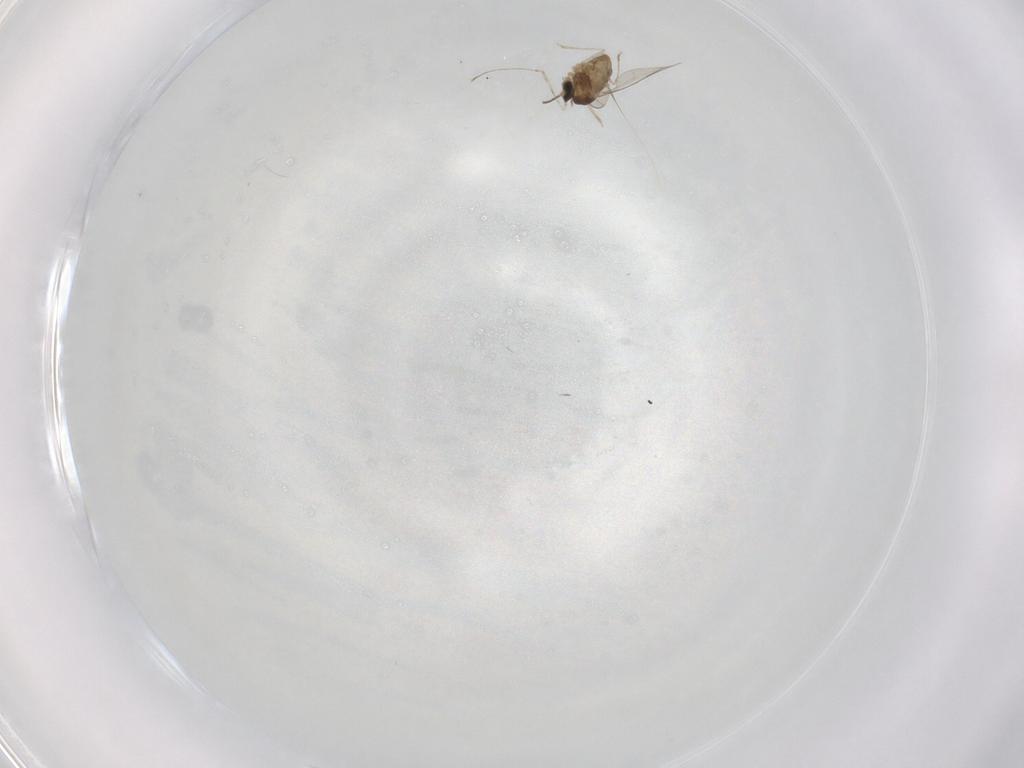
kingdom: Animalia
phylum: Arthropoda
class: Insecta
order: Diptera
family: Cecidomyiidae
